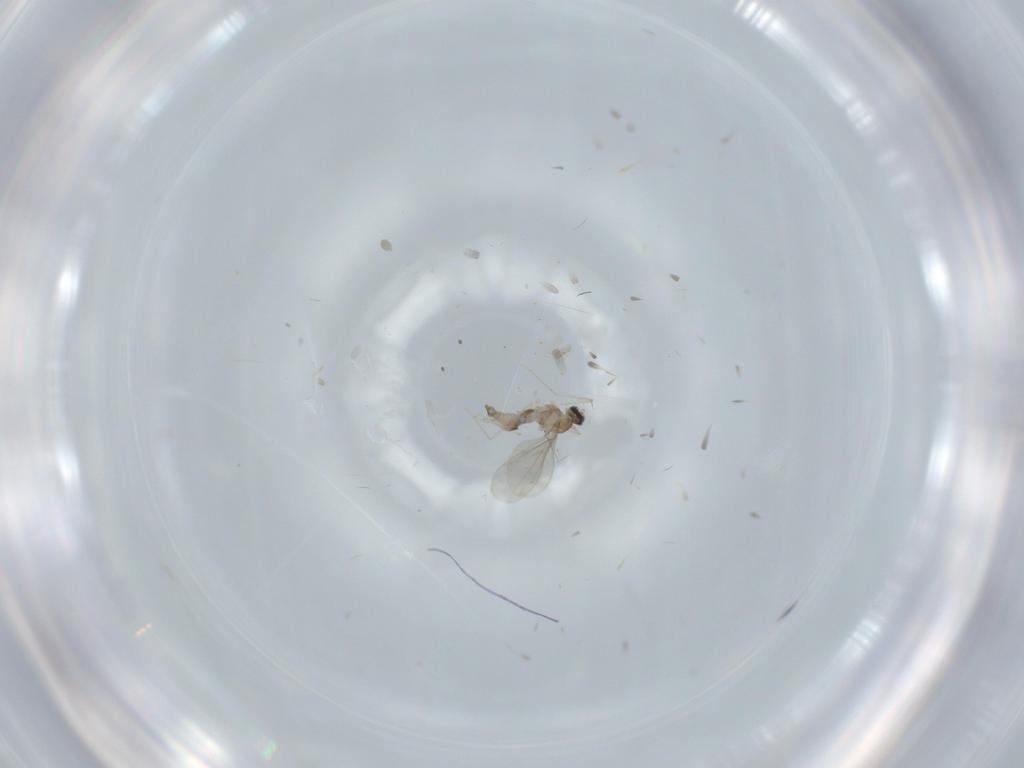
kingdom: Animalia
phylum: Arthropoda
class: Insecta
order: Diptera
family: Cecidomyiidae
